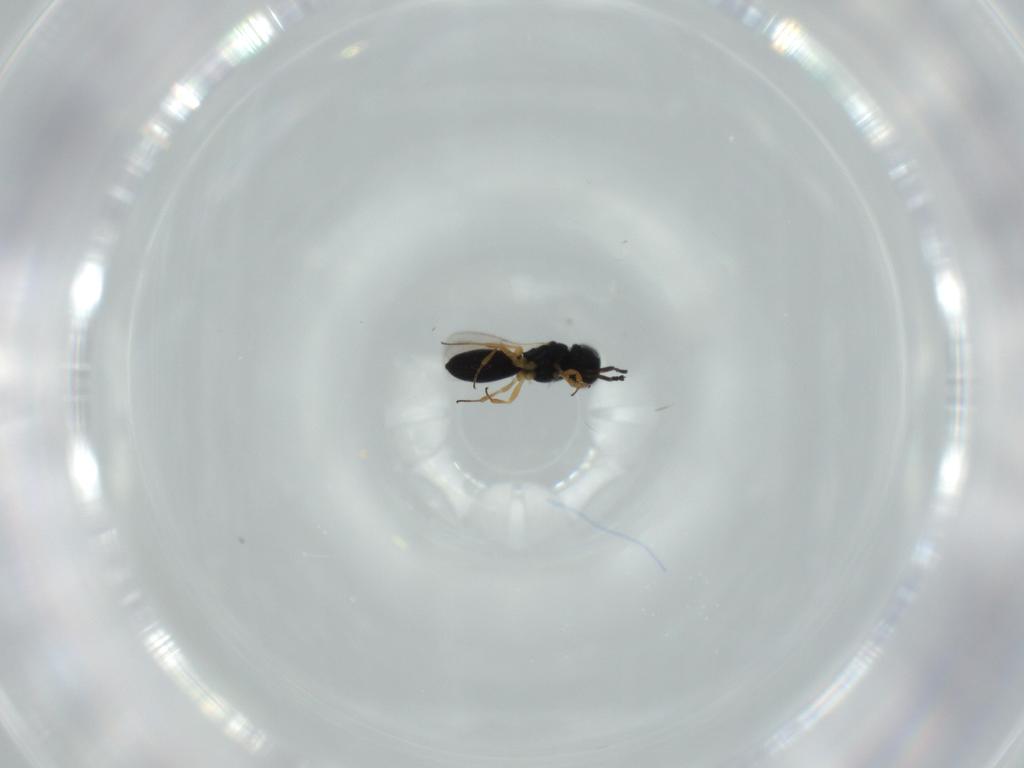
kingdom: Animalia
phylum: Arthropoda
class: Insecta
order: Hymenoptera
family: Scelionidae
